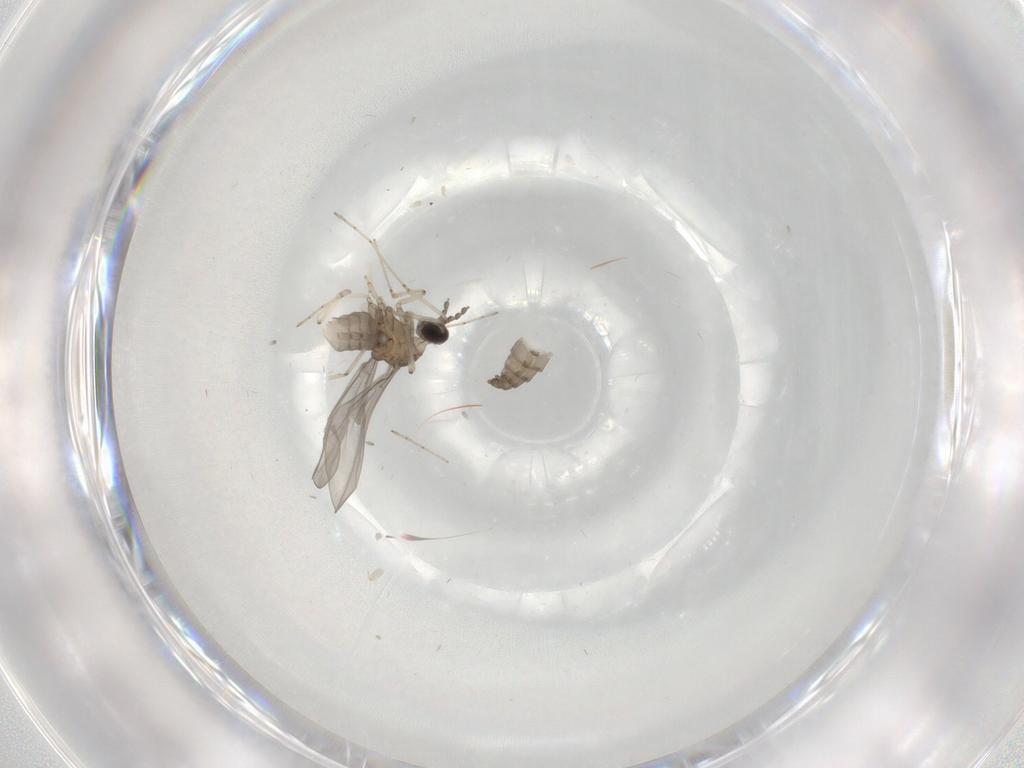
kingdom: Animalia
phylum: Arthropoda
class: Insecta
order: Diptera
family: Cecidomyiidae
